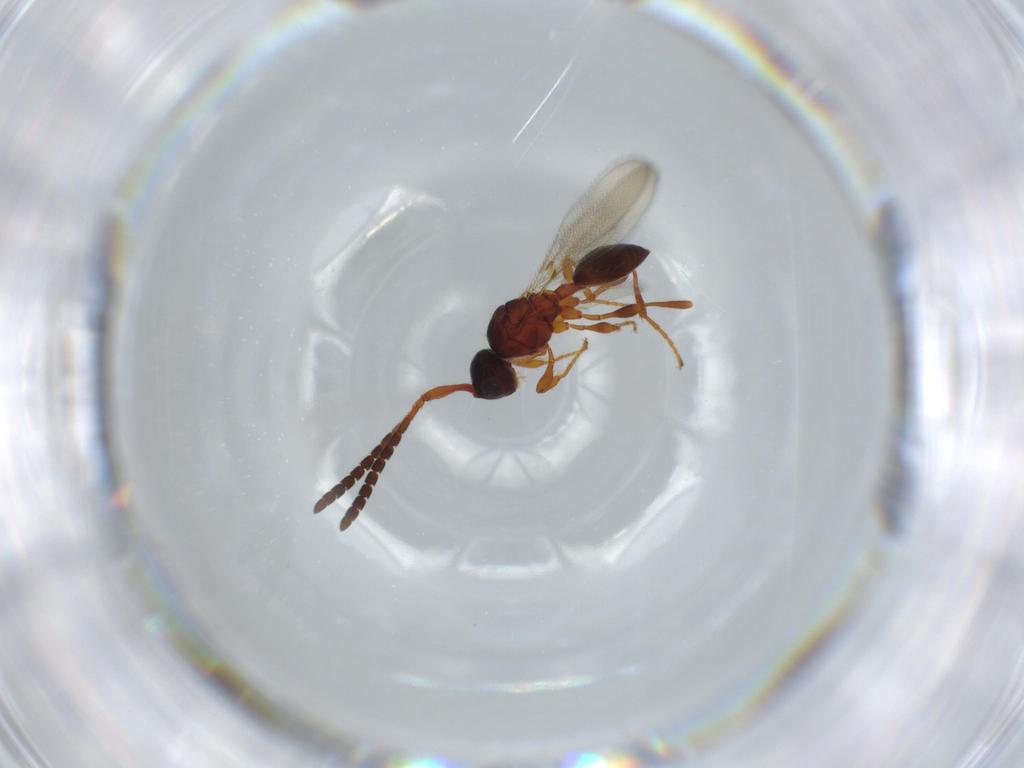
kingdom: Animalia
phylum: Arthropoda
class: Insecta
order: Hymenoptera
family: Diapriidae
